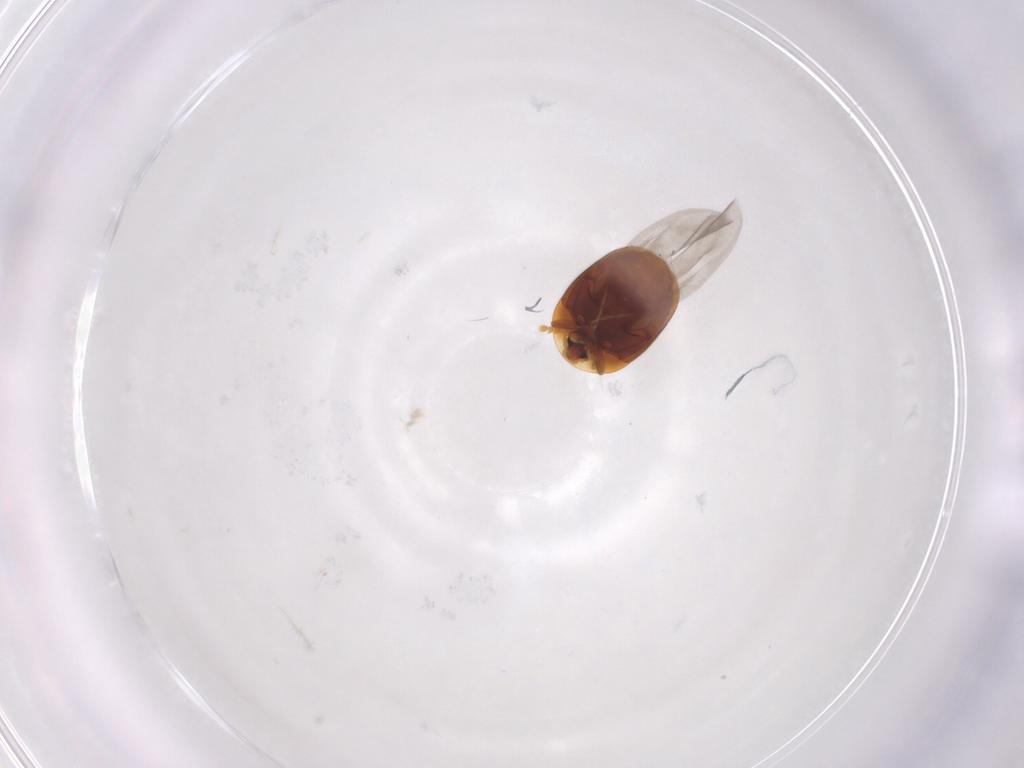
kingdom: Animalia
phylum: Arthropoda
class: Insecta
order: Coleoptera
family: Corylophidae
